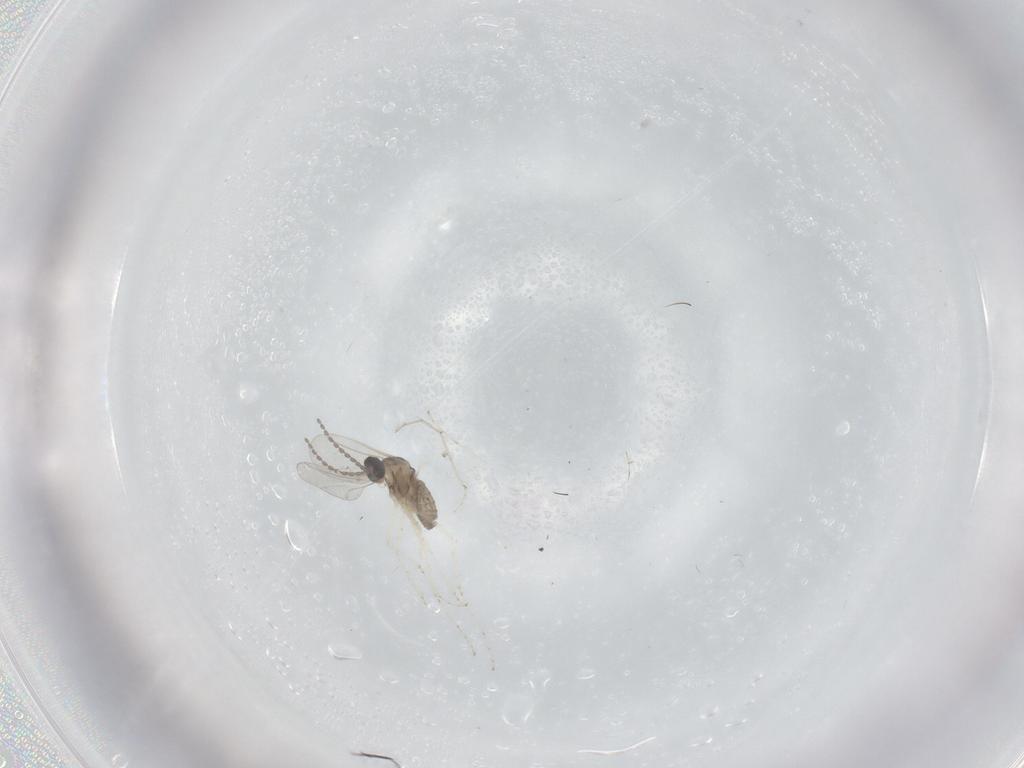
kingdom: Animalia
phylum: Arthropoda
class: Insecta
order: Diptera
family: Cecidomyiidae
